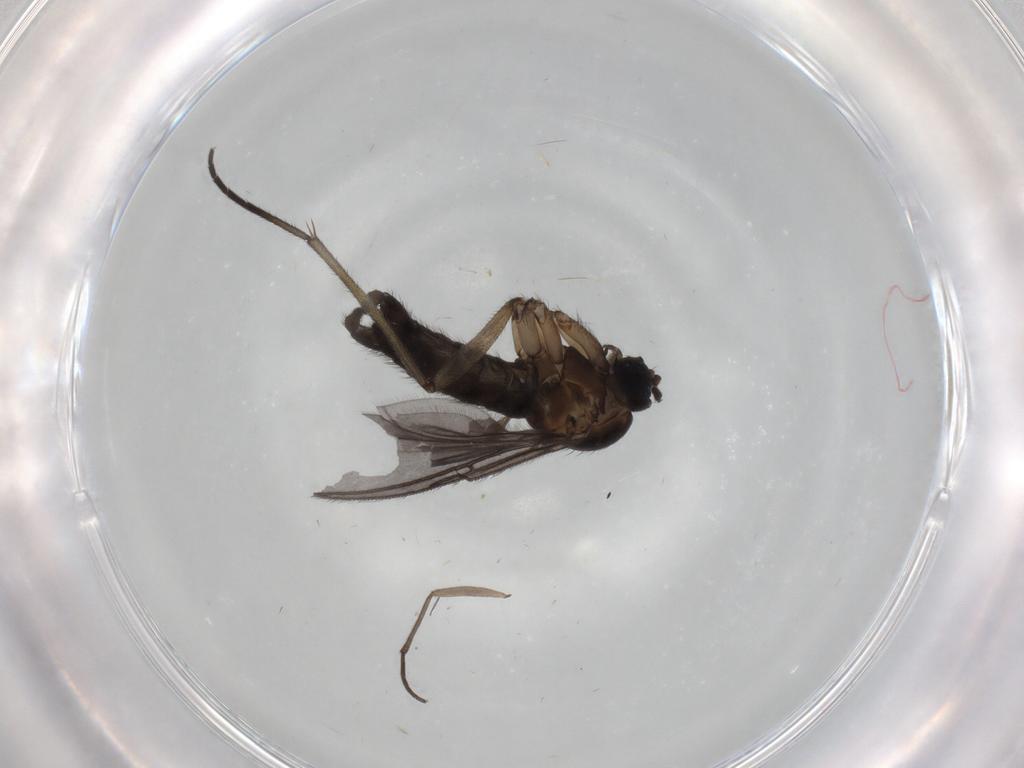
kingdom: Animalia
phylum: Arthropoda
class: Insecta
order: Diptera
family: Sciaridae
